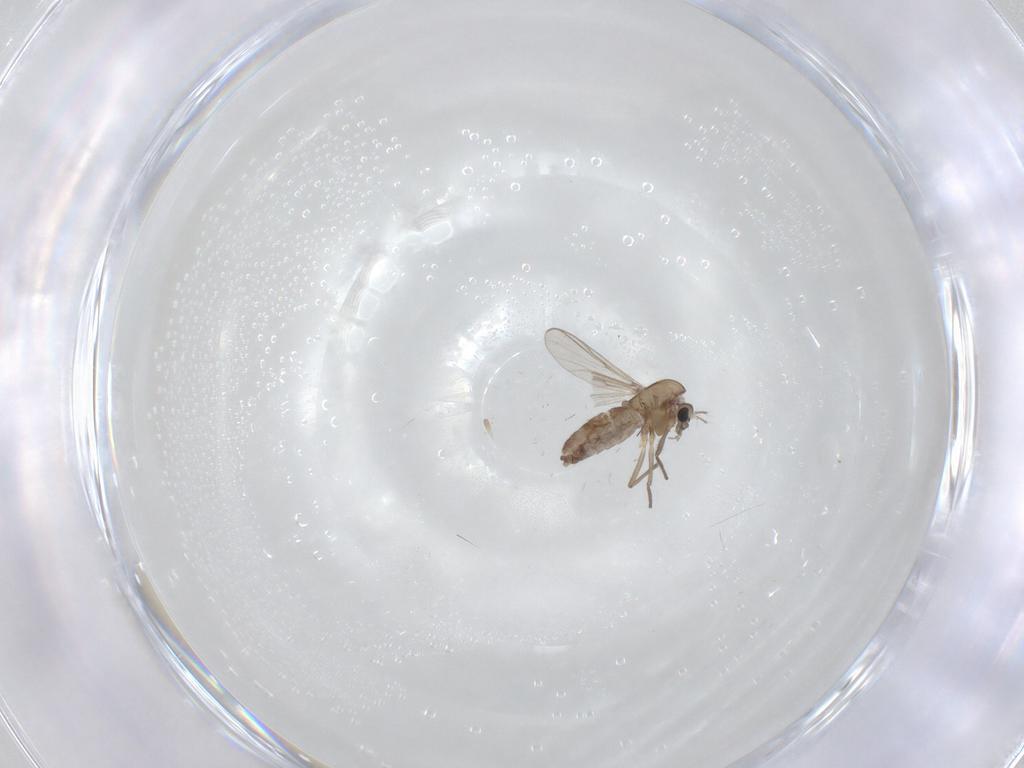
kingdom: Animalia
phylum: Arthropoda
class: Insecta
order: Diptera
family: Chironomidae
